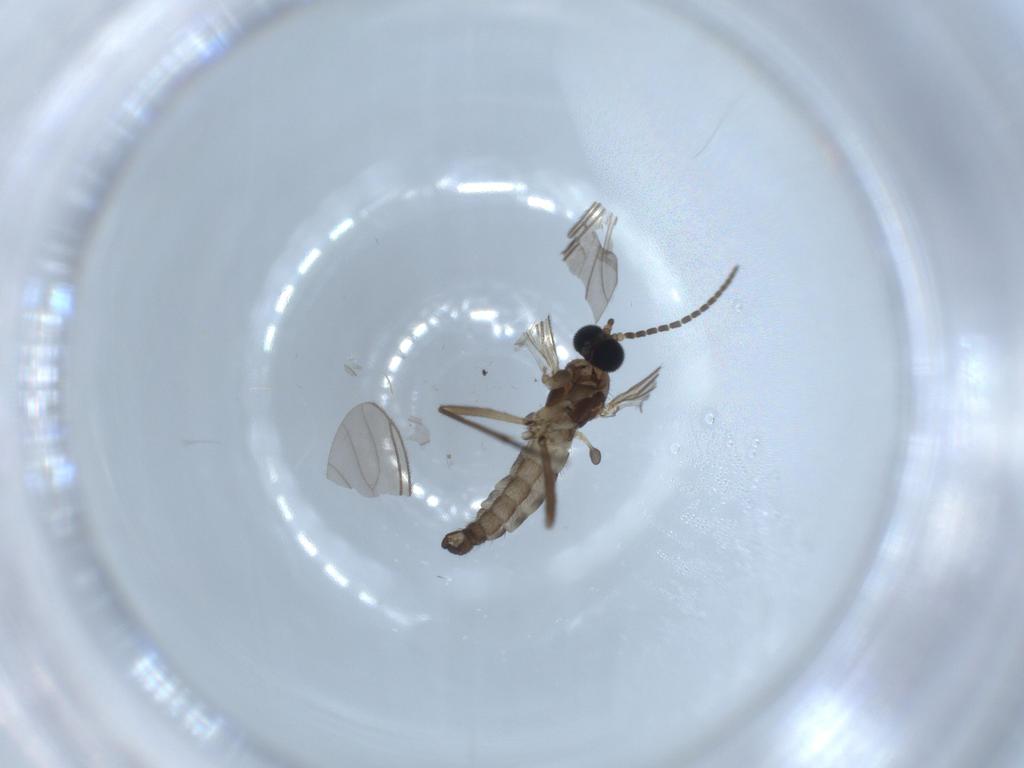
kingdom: Animalia
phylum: Arthropoda
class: Insecta
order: Diptera
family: Sciaridae
